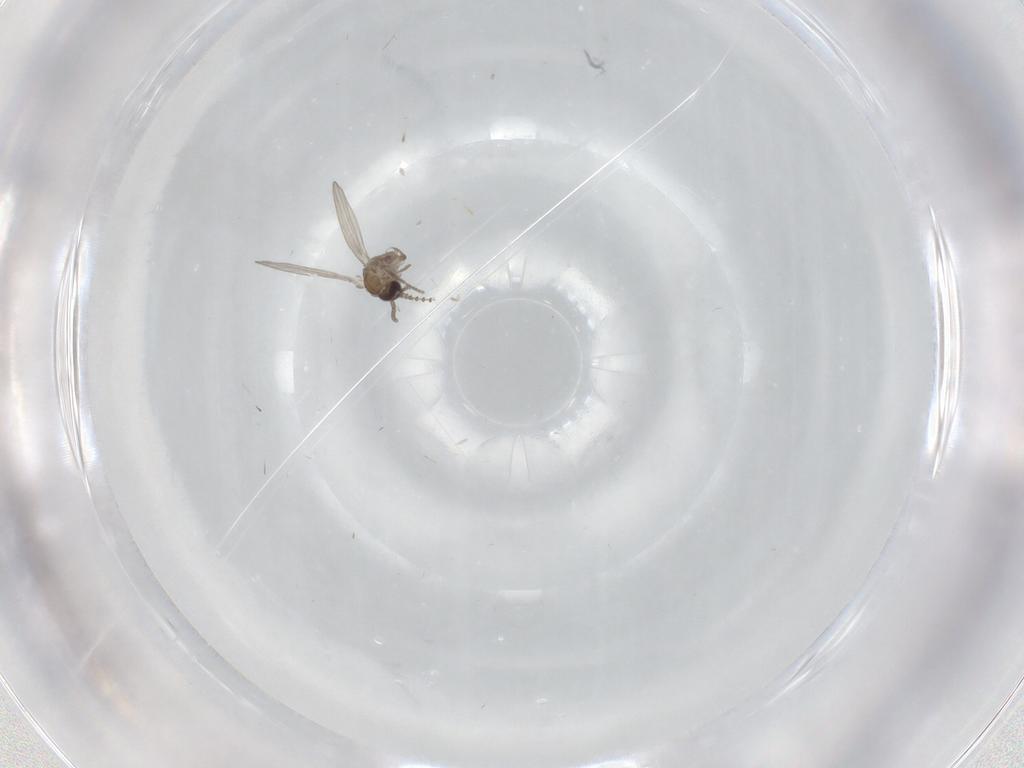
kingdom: Animalia
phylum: Arthropoda
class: Insecta
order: Diptera
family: Psychodidae
